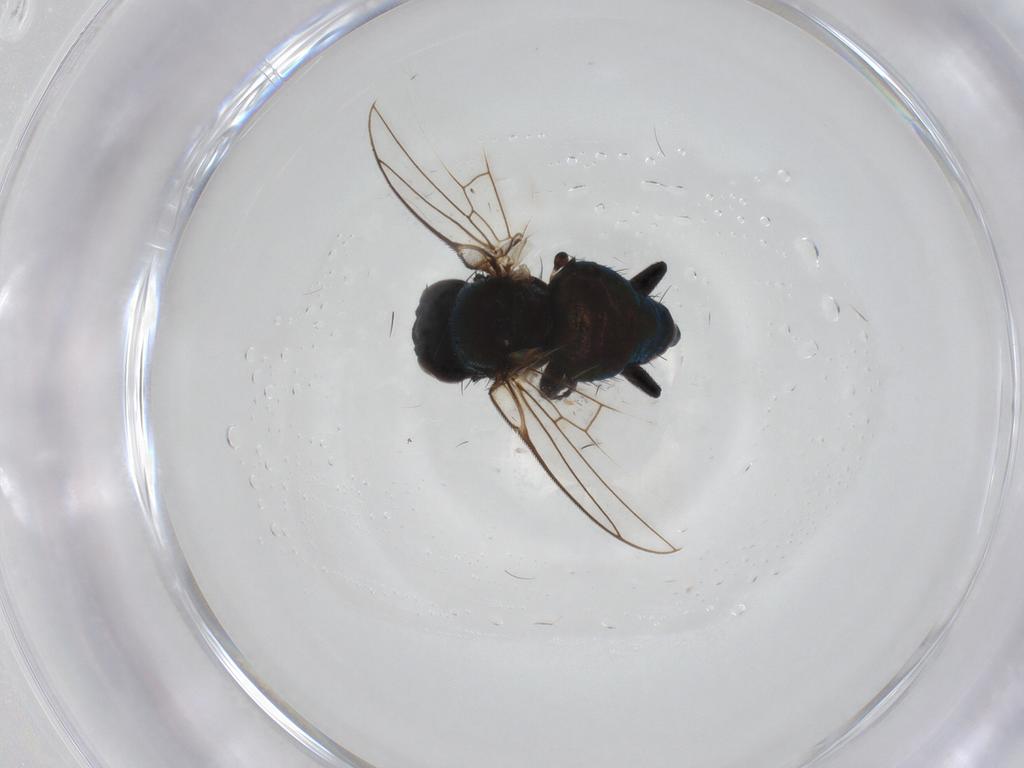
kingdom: Animalia
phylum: Arthropoda
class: Insecta
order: Diptera
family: Agromyzidae
